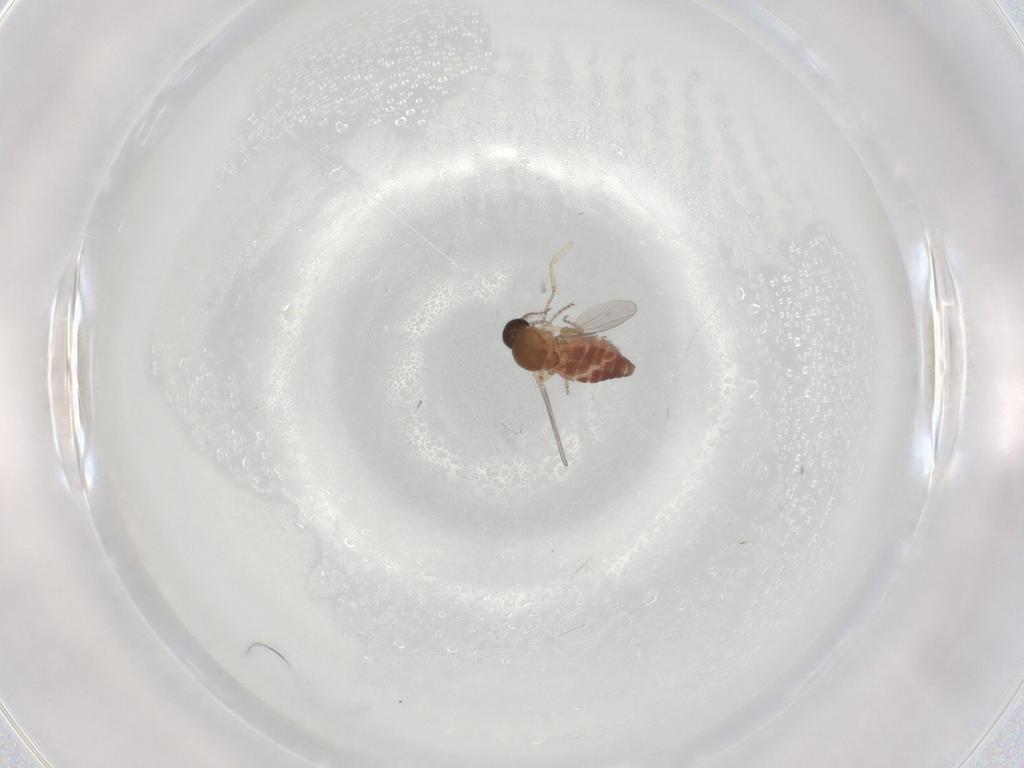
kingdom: Animalia
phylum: Arthropoda
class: Insecta
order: Diptera
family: Ceratopogonidae
